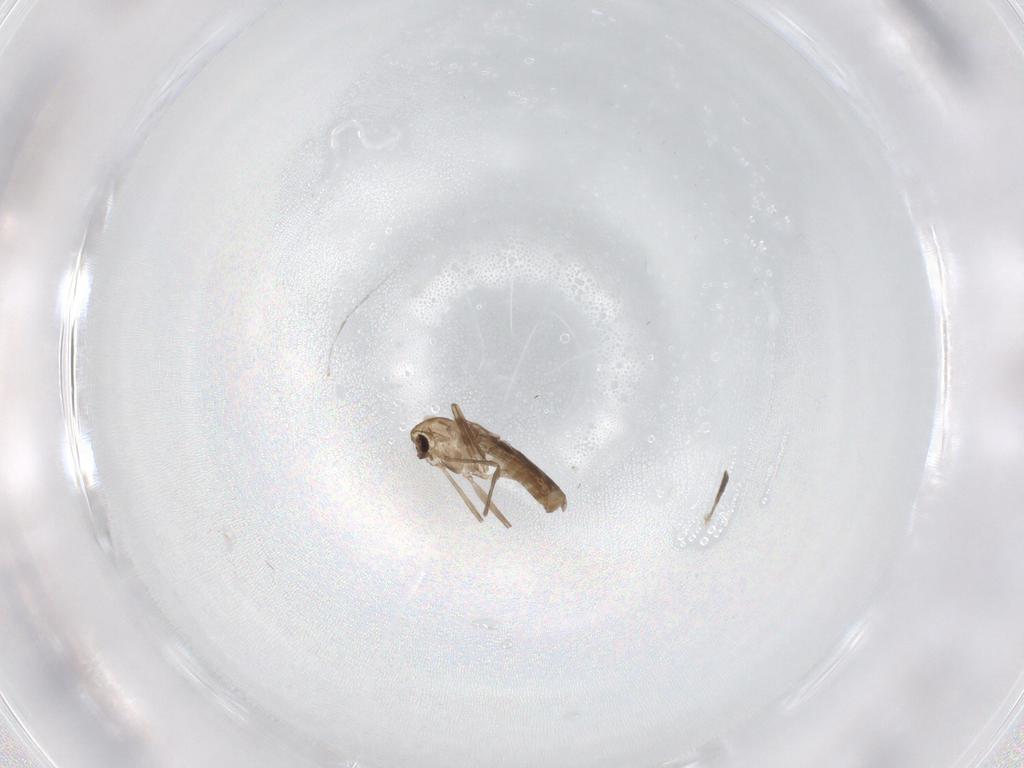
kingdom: Animalia
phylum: Arthropoda
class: Insecta
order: Diptera
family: Chironomidae
